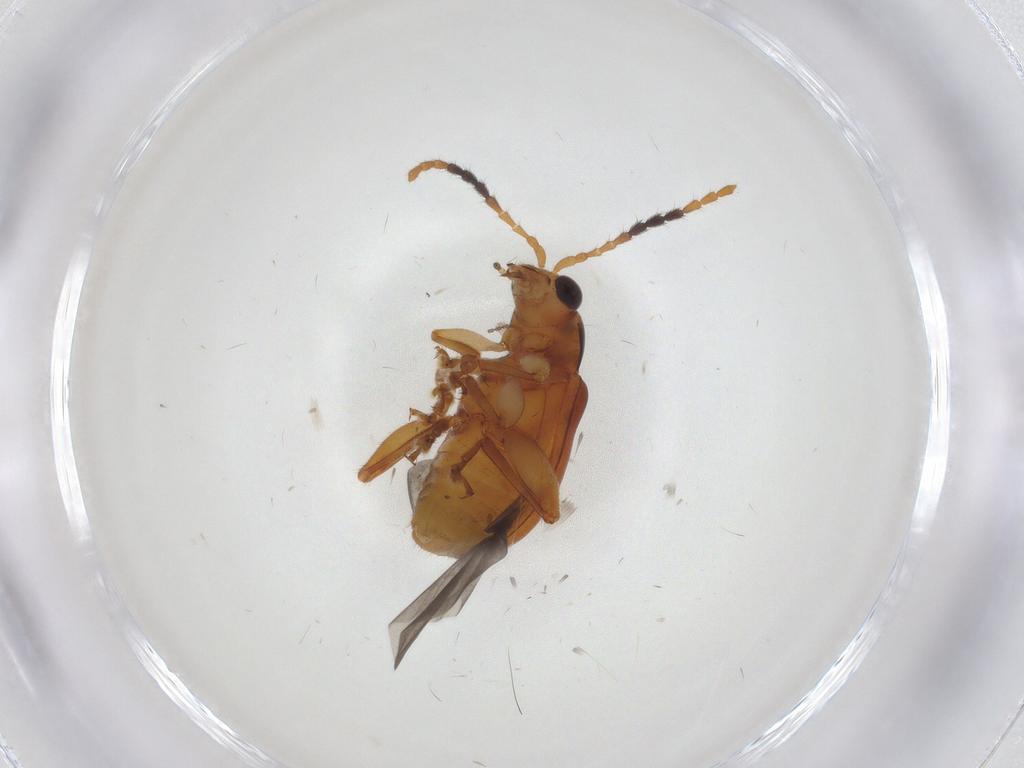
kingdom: Animalia
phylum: Arthropoda
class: Insecta
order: Coleoptera
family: Chrysomelidae
